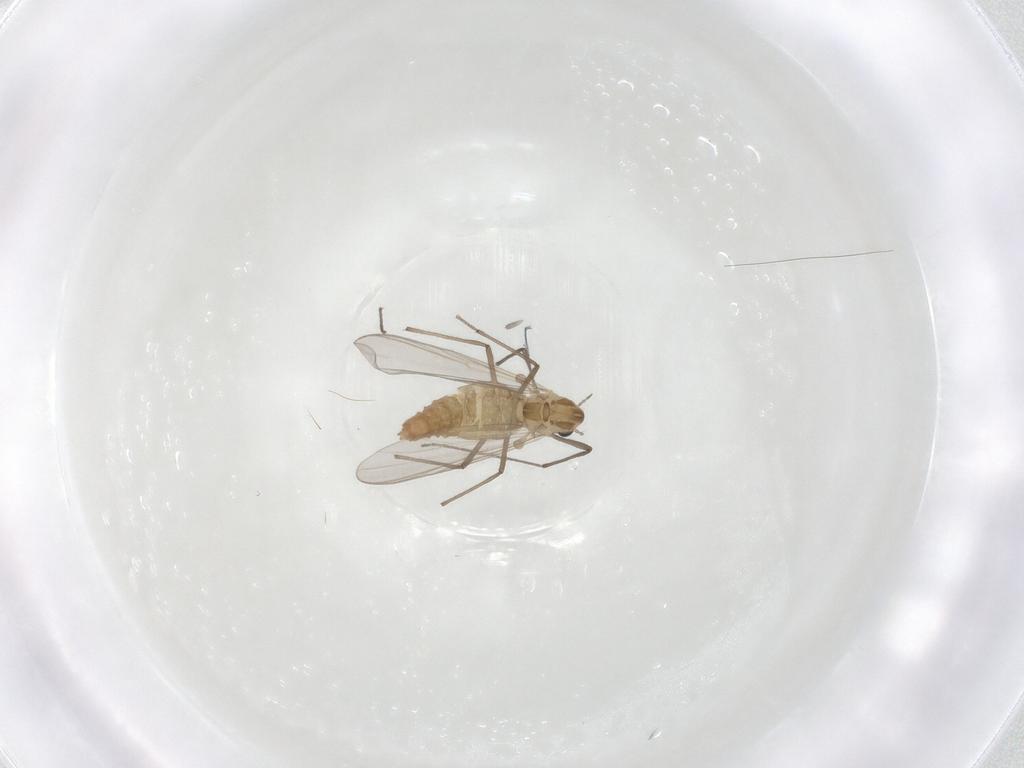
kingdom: Animalia
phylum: Arthropoda
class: Insecta
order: Diptera
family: Chironomidae
